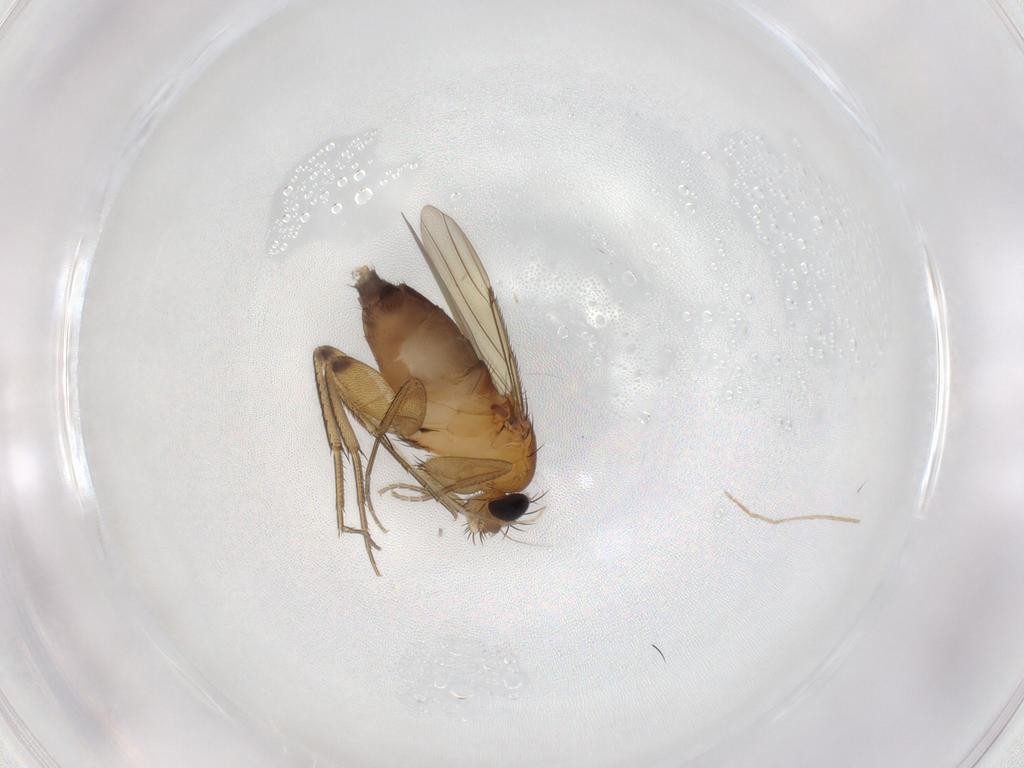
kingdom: Animalia
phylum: Arthropoda
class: Insecta
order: Diptera
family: Phoridae
